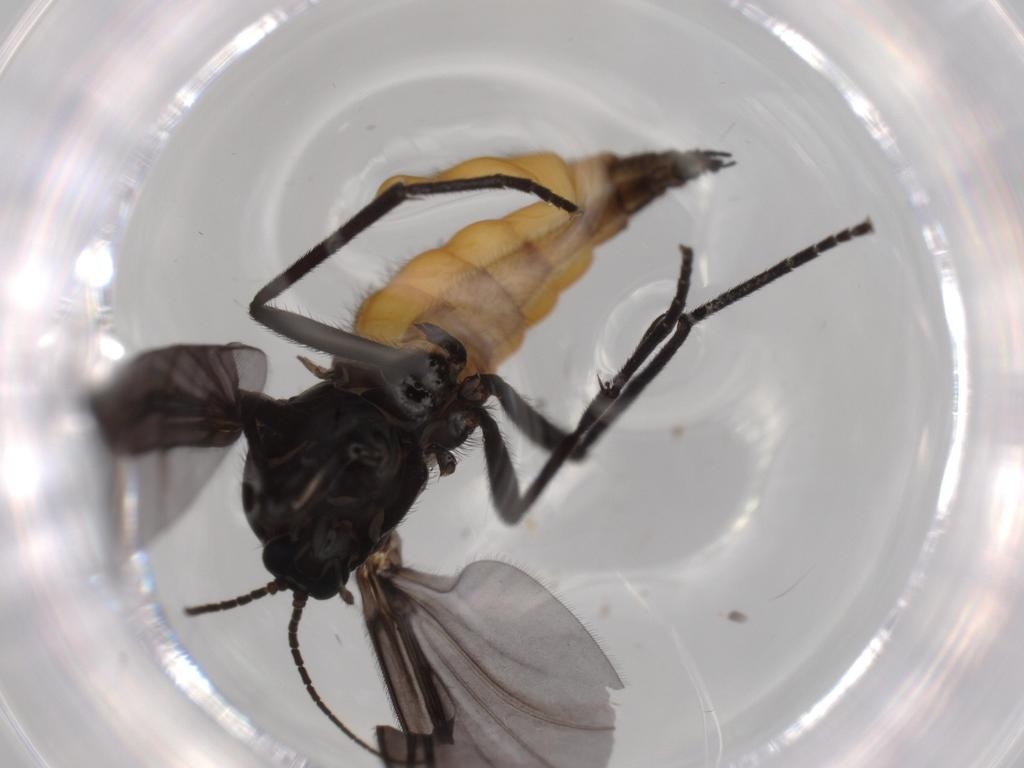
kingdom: Animalia
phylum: Arthropoda
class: Insecta
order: Diptera
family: Cecidomyiidae
